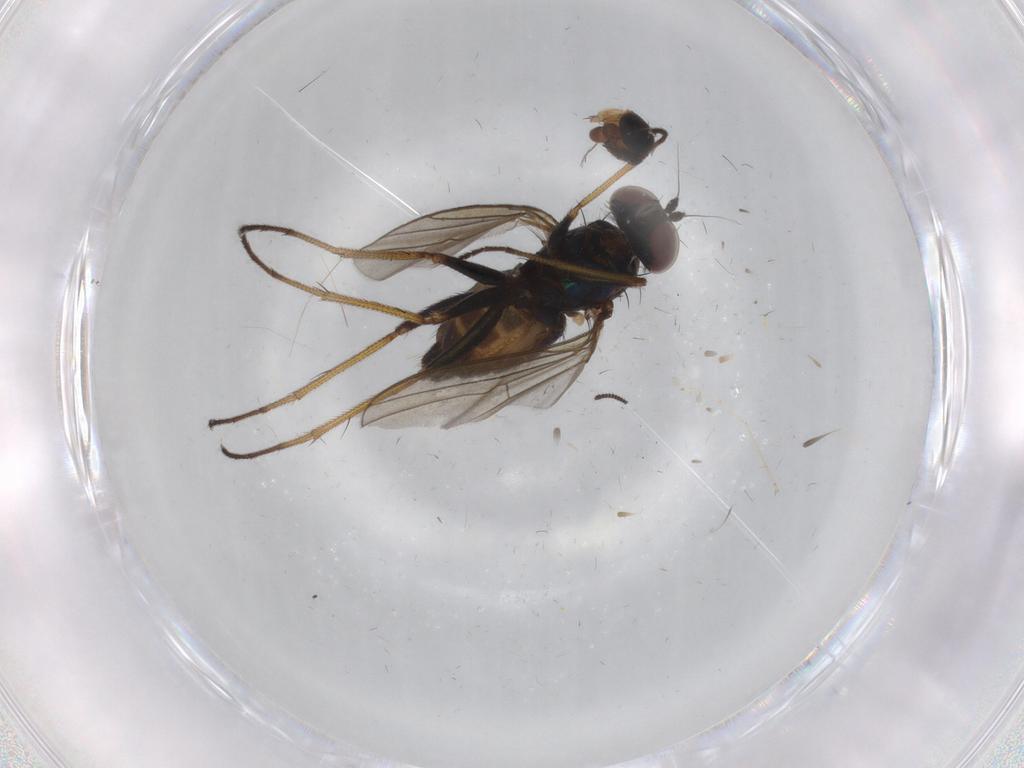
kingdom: Animalia
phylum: Arthropoda
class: Insecta
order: Diptera
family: Dolichopodidae
